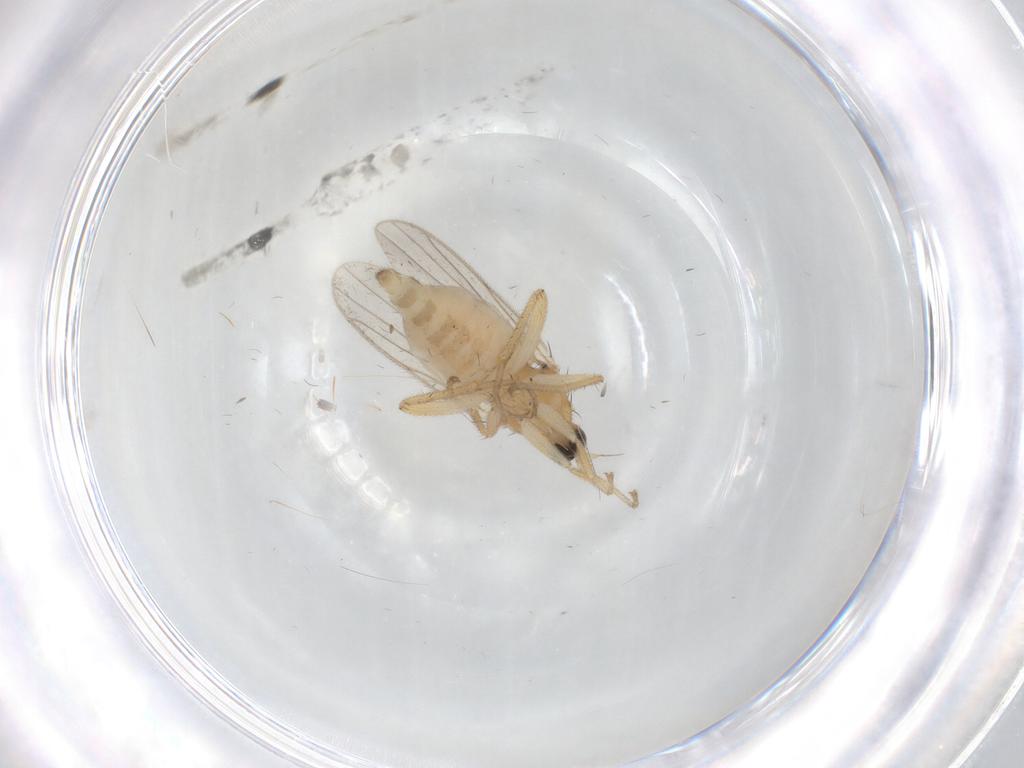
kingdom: Animalia
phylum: Arthropoda
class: Insecta
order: Diptera
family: Hybotidae
